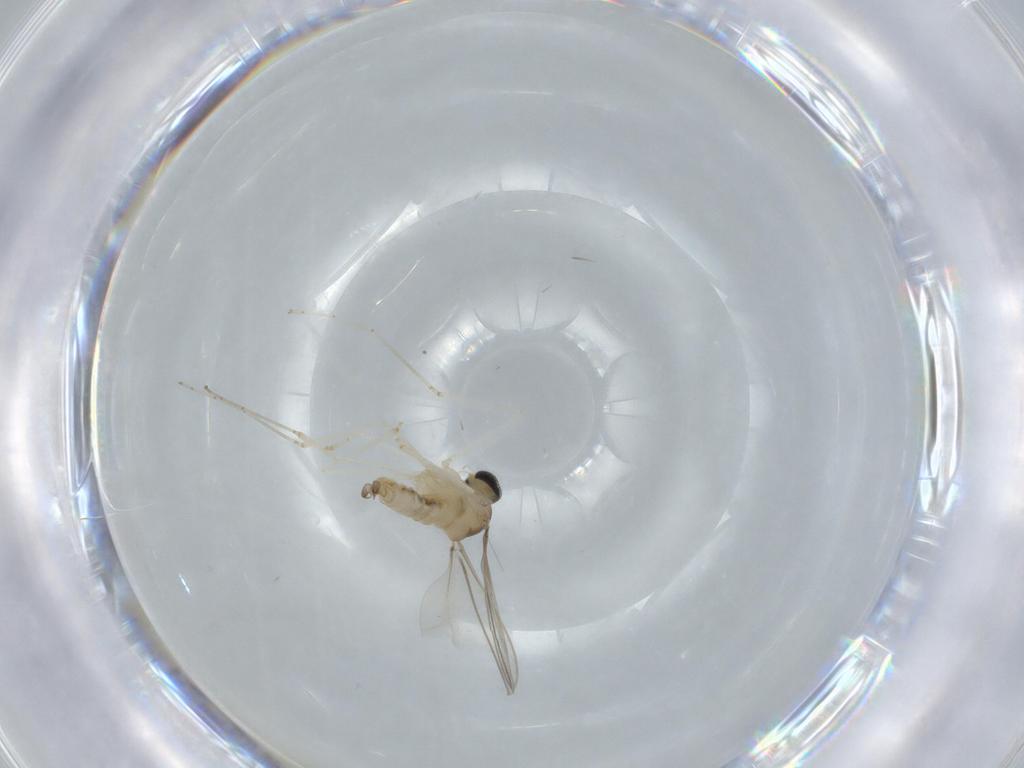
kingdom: Animalia
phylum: Arthropoda
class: Insecta
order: Diptera
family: Cecidomyiidae
